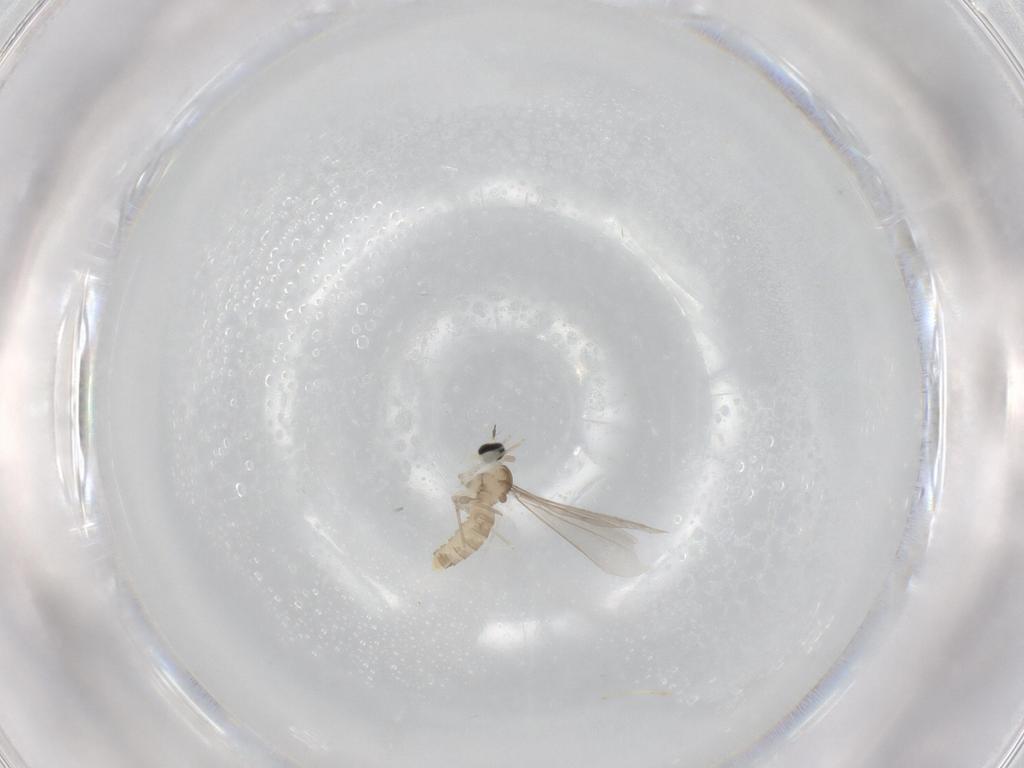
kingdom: Animalia
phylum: Arthropoda
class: Insecta
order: Diptera
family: Cecidomyiidae
